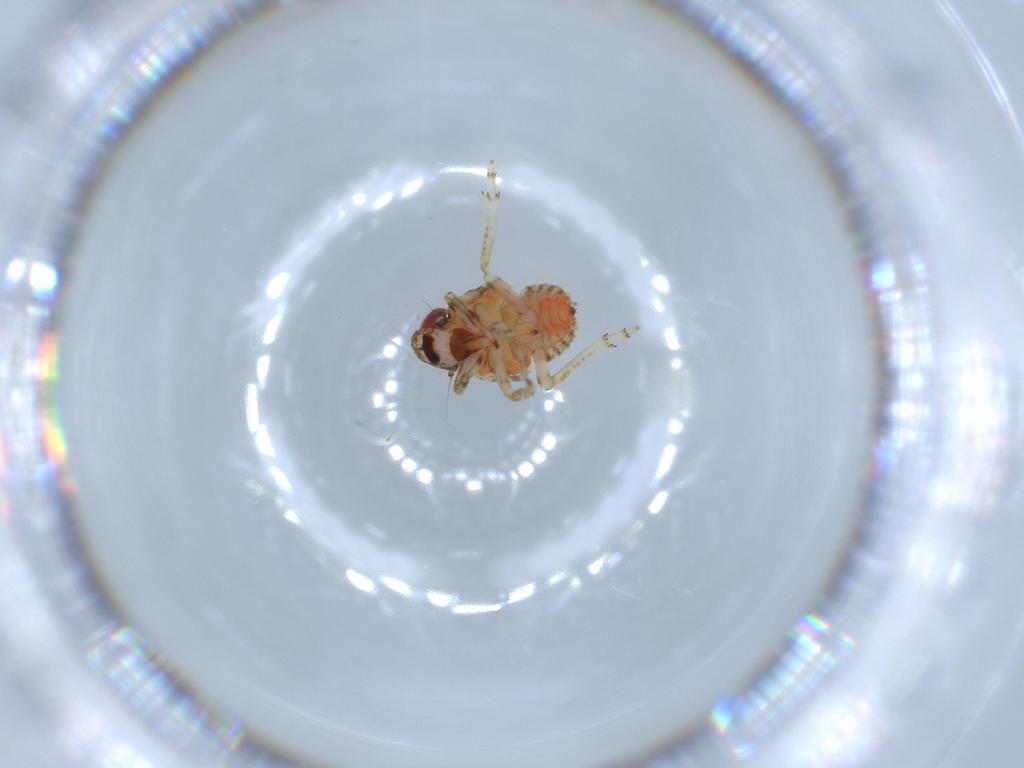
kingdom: Animalia
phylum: Arthropoda
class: Insecta
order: Hemiptera
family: Issidae
